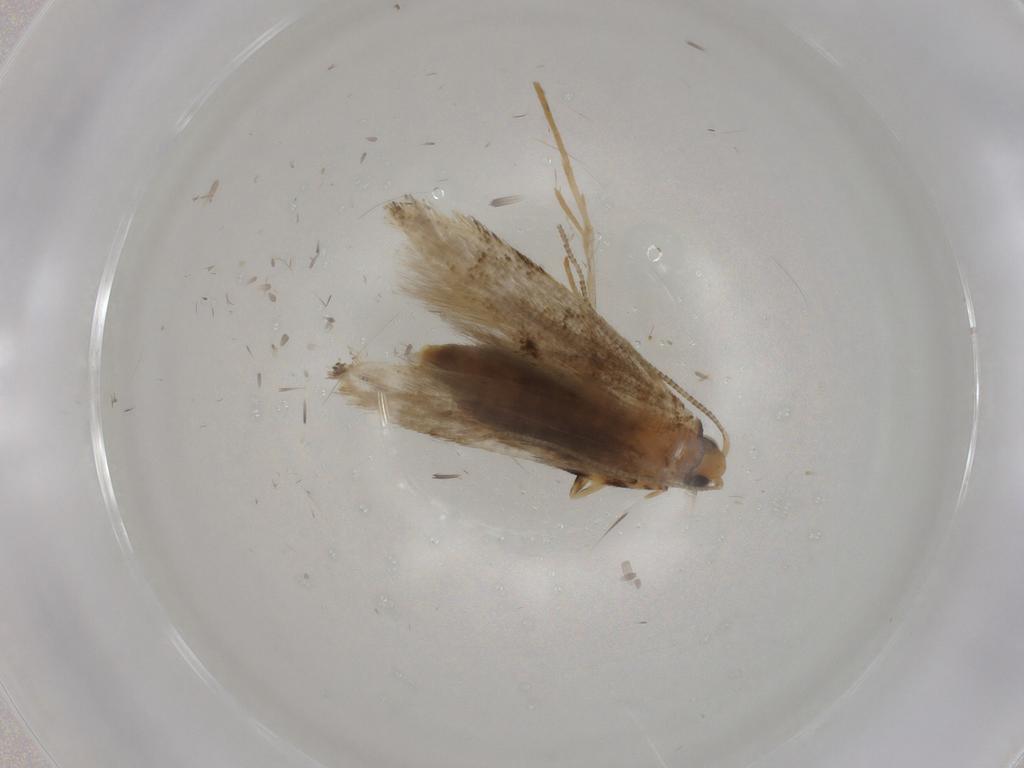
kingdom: Animalia
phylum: Arthropoda
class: Insecta
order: Lepidoptera
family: Tineidae
